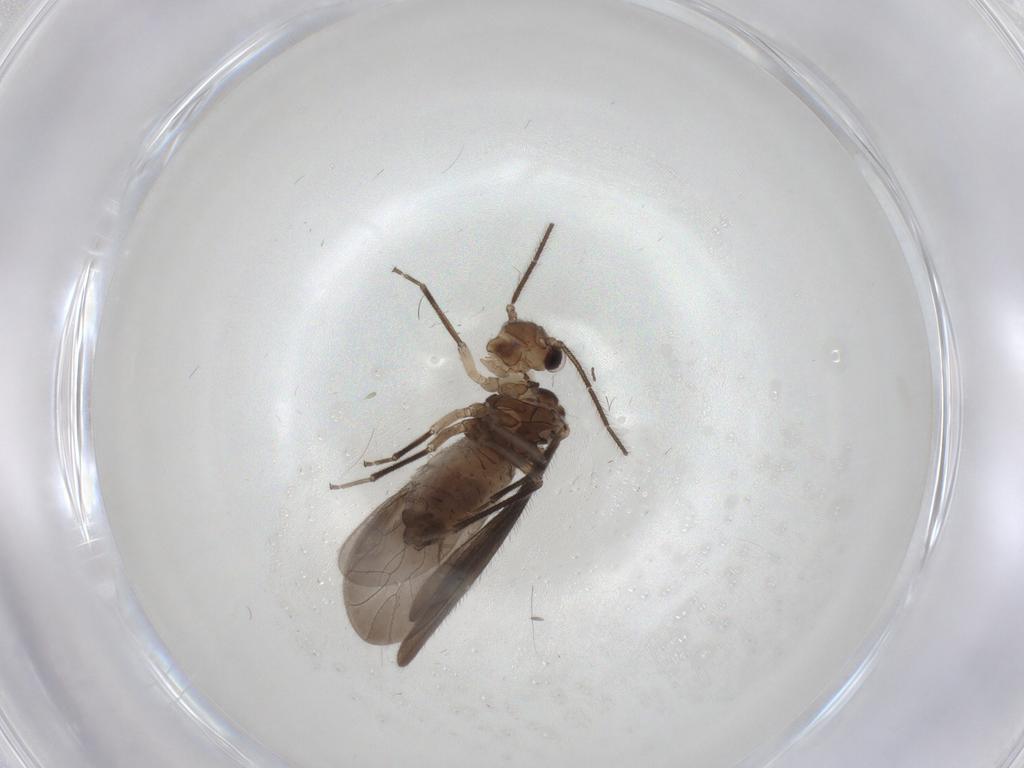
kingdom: Animalia
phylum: Arthropoda
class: Insecta
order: Psocodea
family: Caeciliusidae
